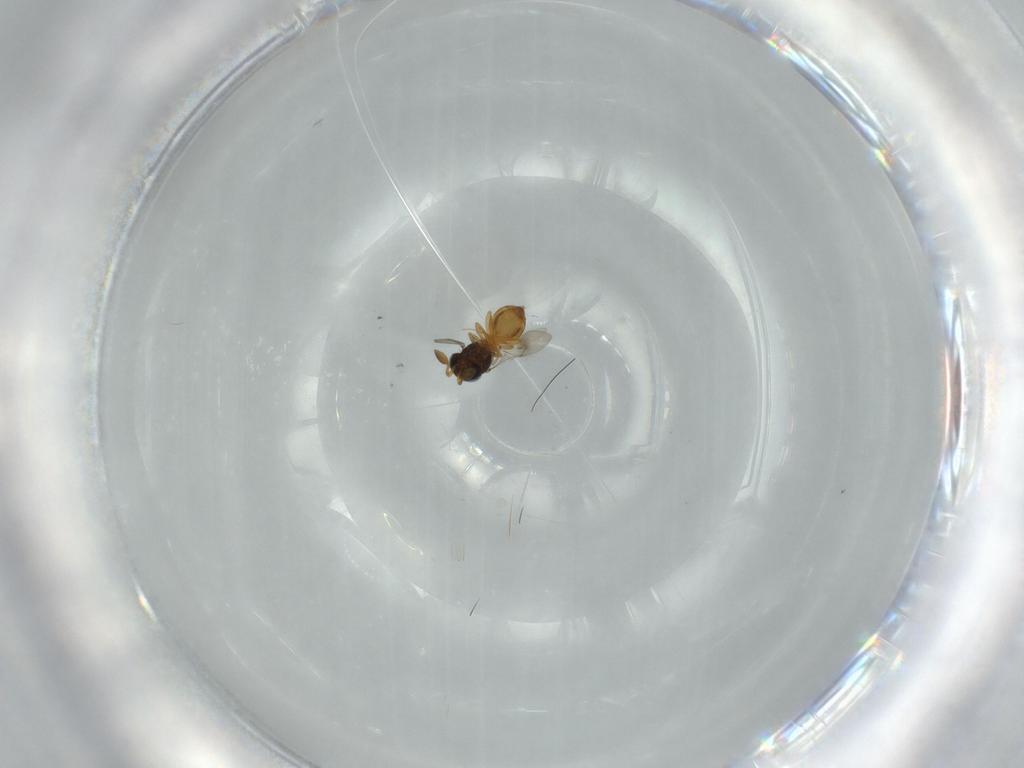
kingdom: Animalia
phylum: Arthropoda
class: Insecta
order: Hymenoptera
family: Scelionidae
